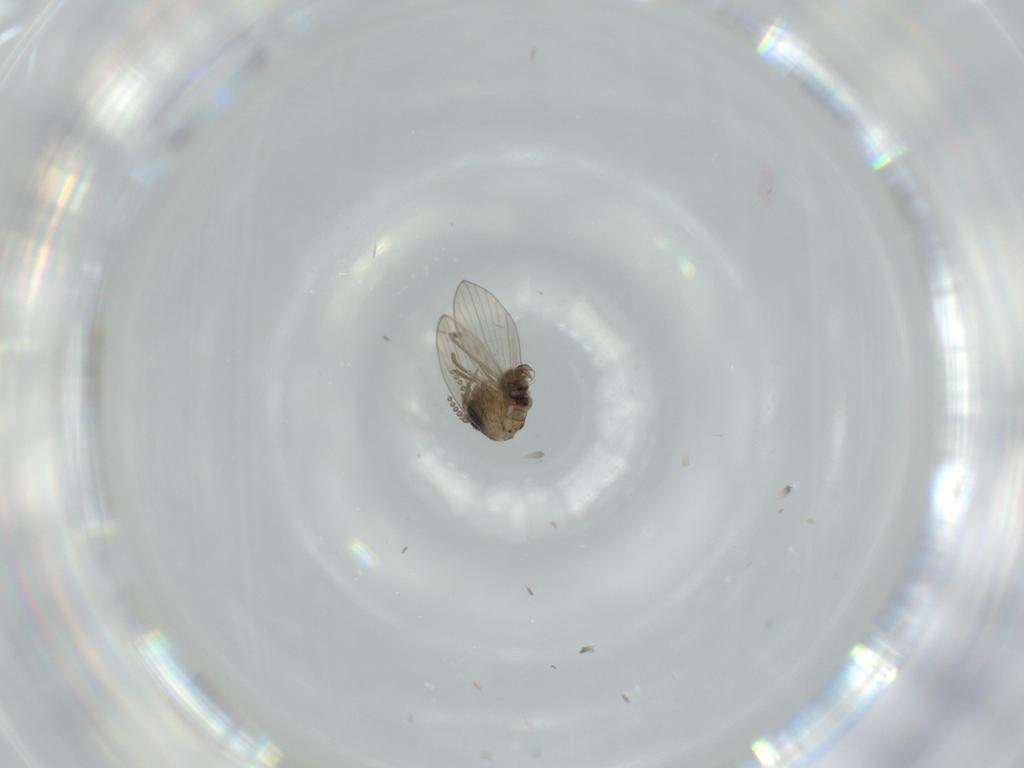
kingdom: Animalia
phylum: Arthropoda
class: Insecta
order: Diptera
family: Psychodidae
